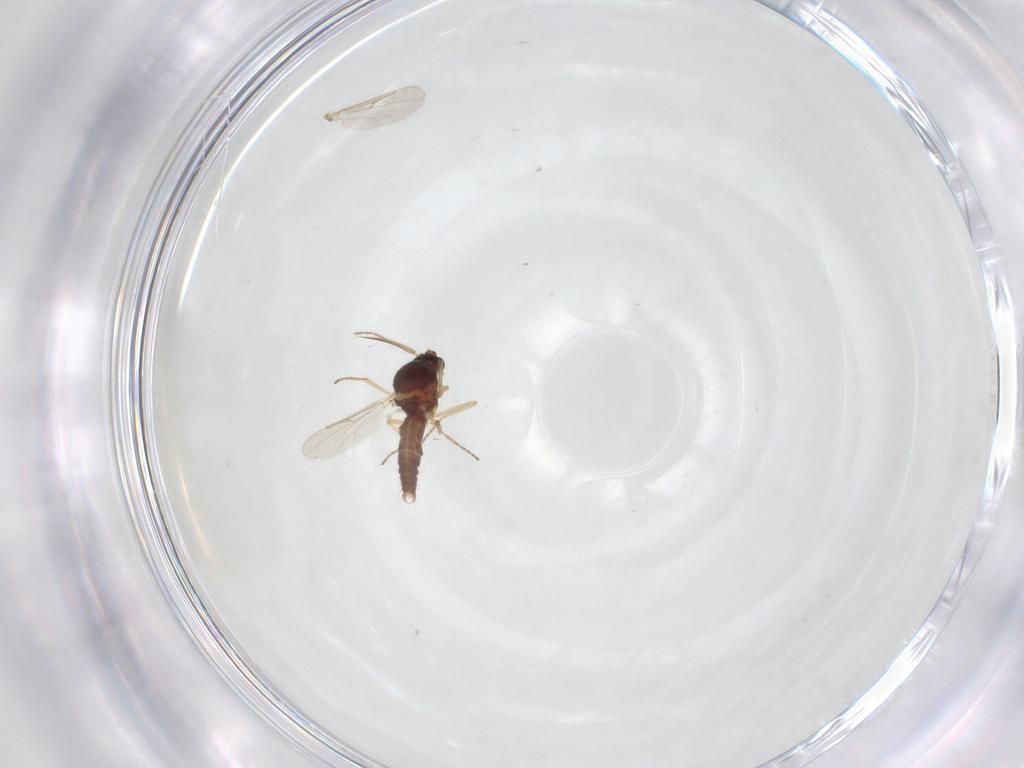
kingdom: Animalia
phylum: Arthropoda
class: Insecta
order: Diptera
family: Ceratopogonidae
